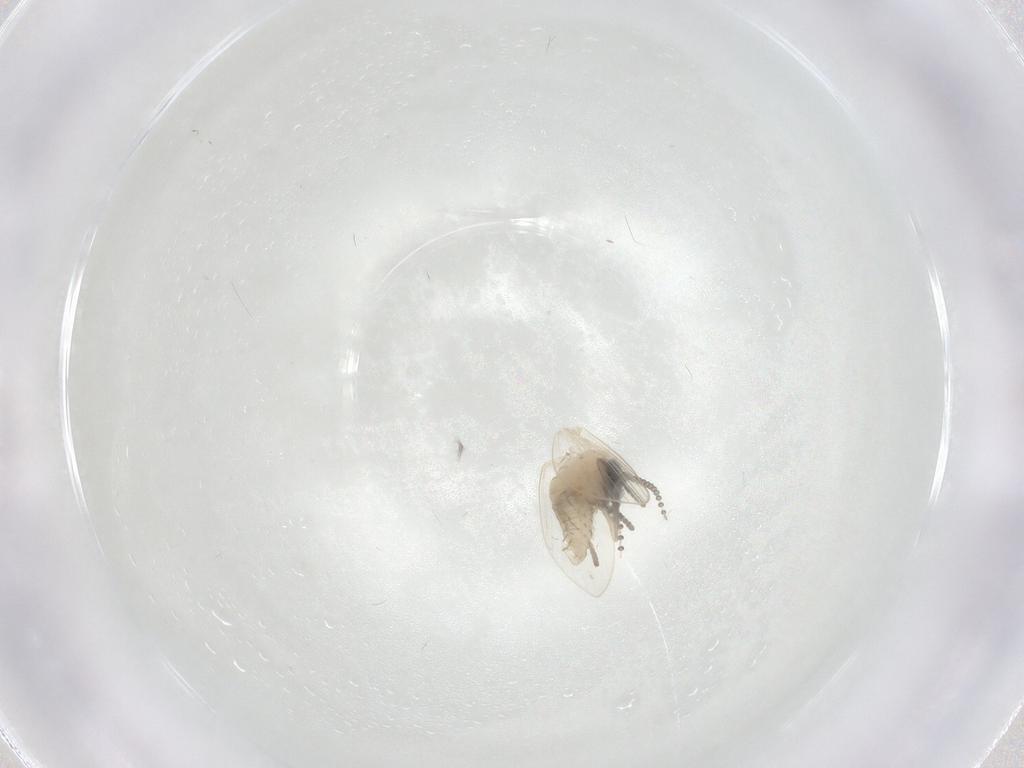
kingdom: Animalia
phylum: Arthropoda
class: Insecta
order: Diptera
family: Psychodidae
